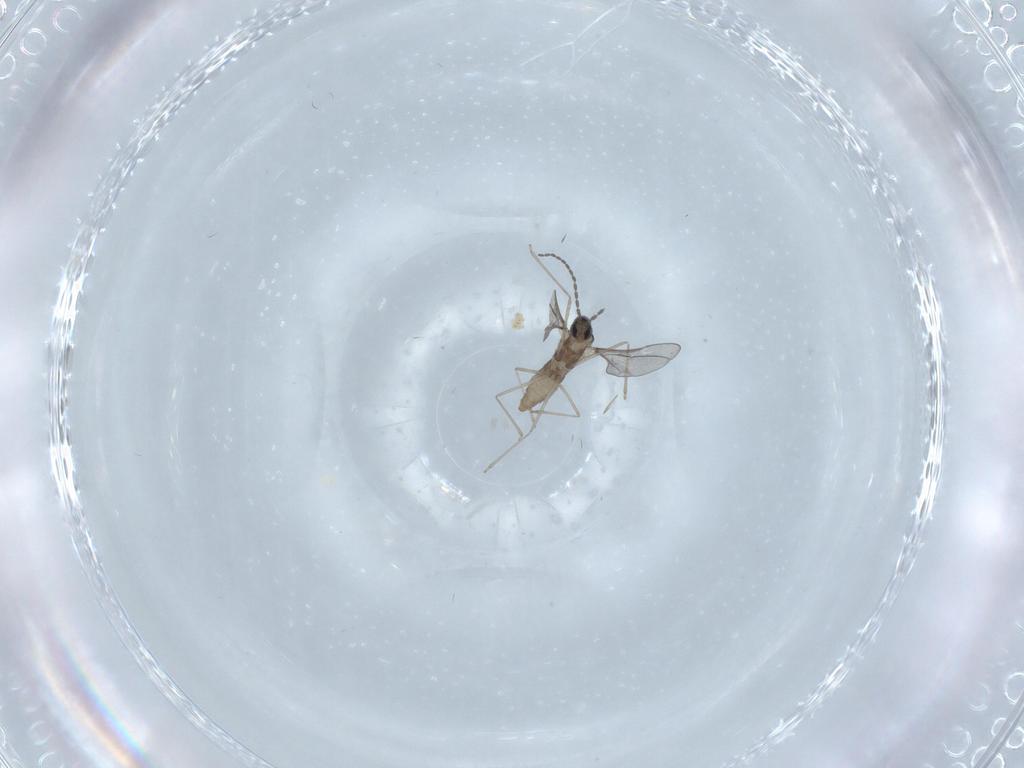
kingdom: Animalia
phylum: Arthropoda
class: Insecta
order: Diptera
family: Cecidomyiidae
